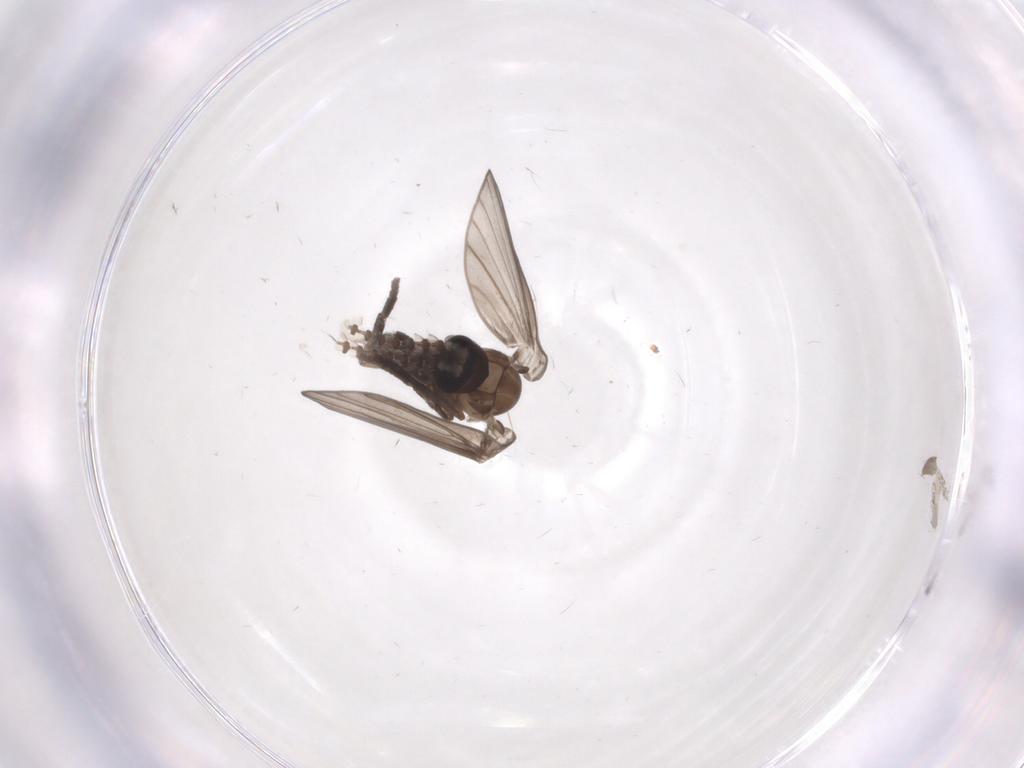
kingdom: Animalia
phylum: Arthropoda
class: Insecta
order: Diptera
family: Psychodidae
